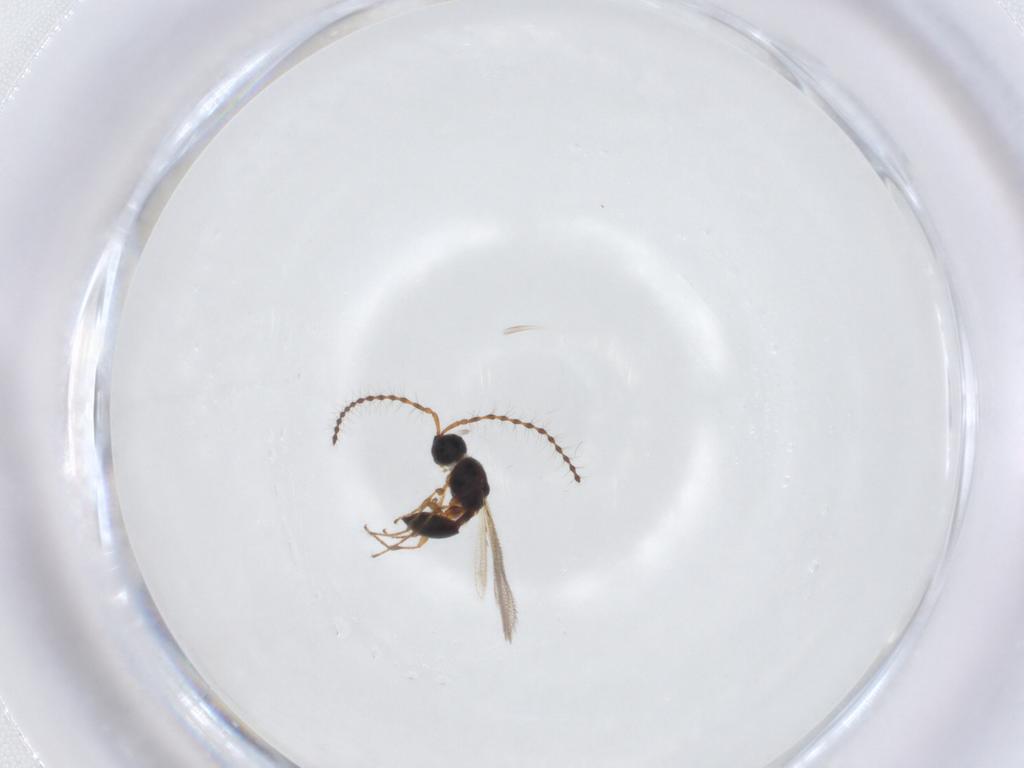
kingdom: Animalia
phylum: Arthropoda
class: Insecta
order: Hymenoptera
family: Diapriidae
